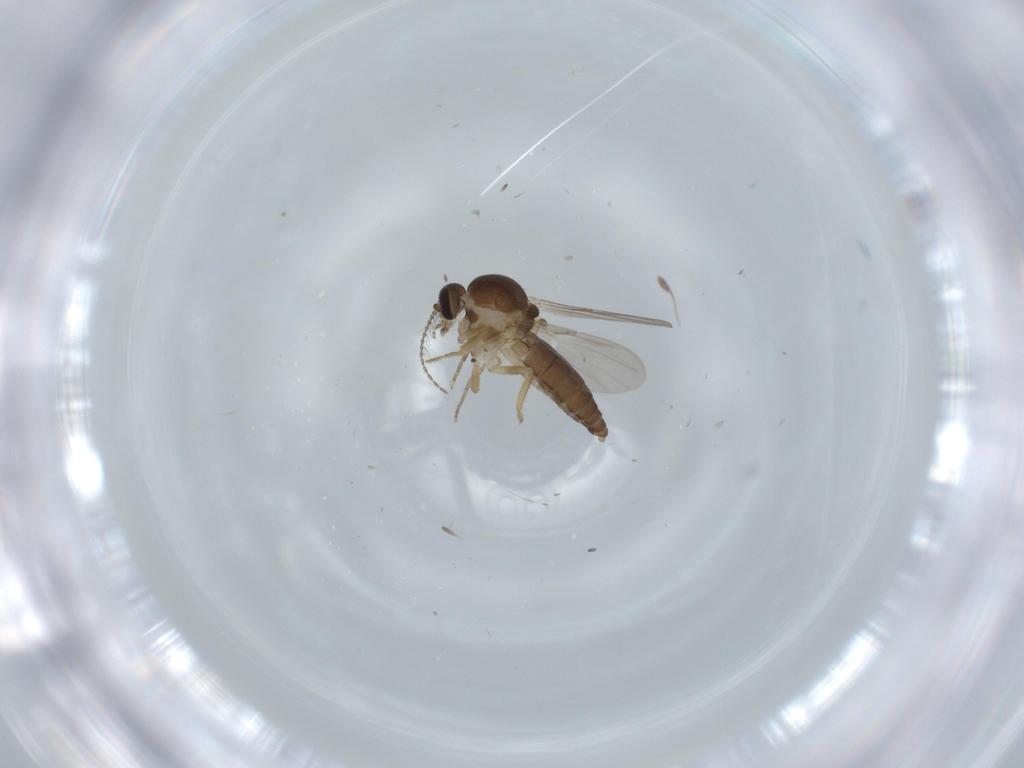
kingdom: Animalia
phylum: Arthropoda
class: Insecta
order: Diptera
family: Ceratopogonidae
